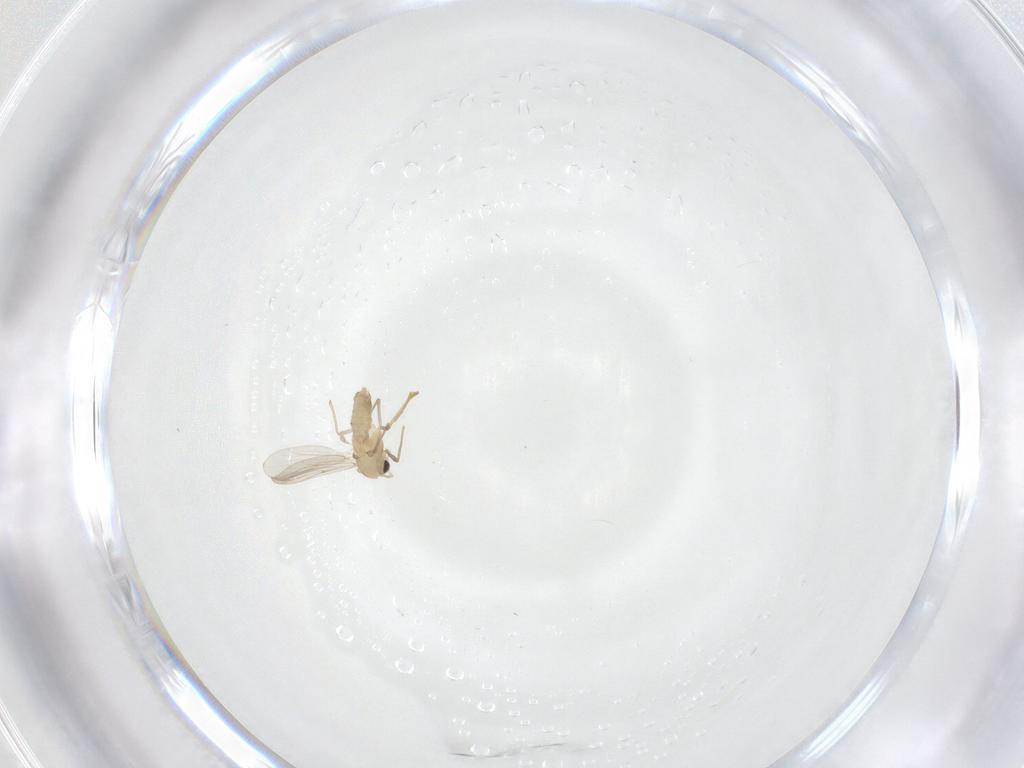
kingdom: Animalia
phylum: Arthropoda
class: Insecta
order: Diptera
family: Chironomidae
